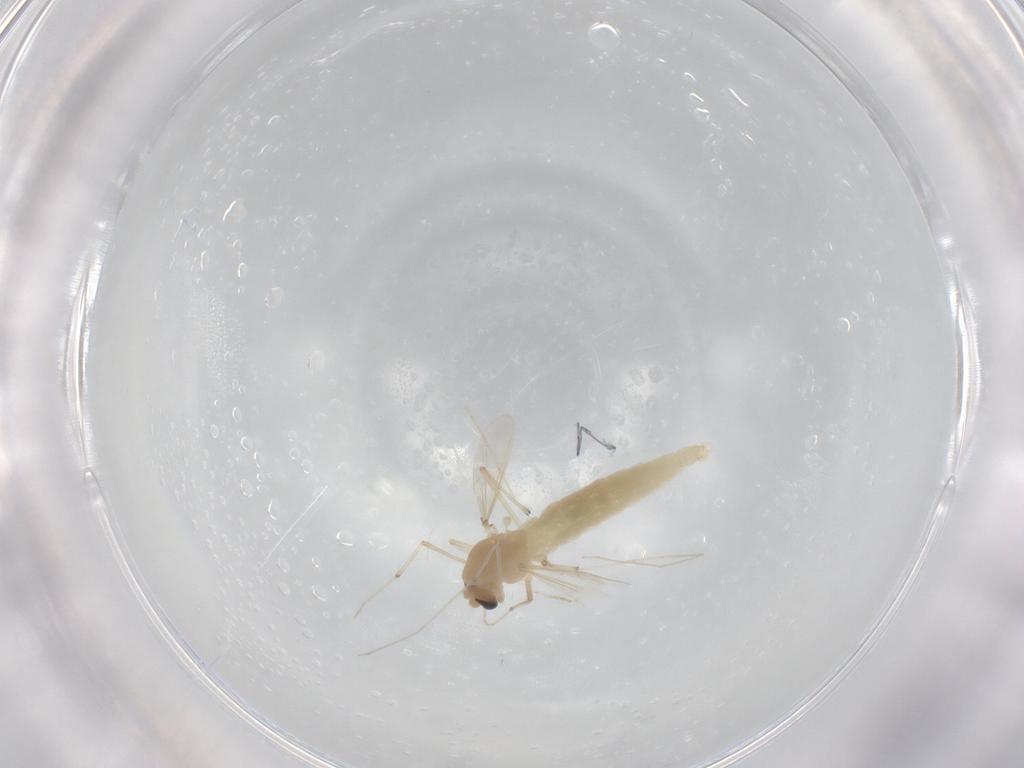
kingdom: Animalia
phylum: Arthropoda
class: Insecta
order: Diptera
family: Chironomidae
